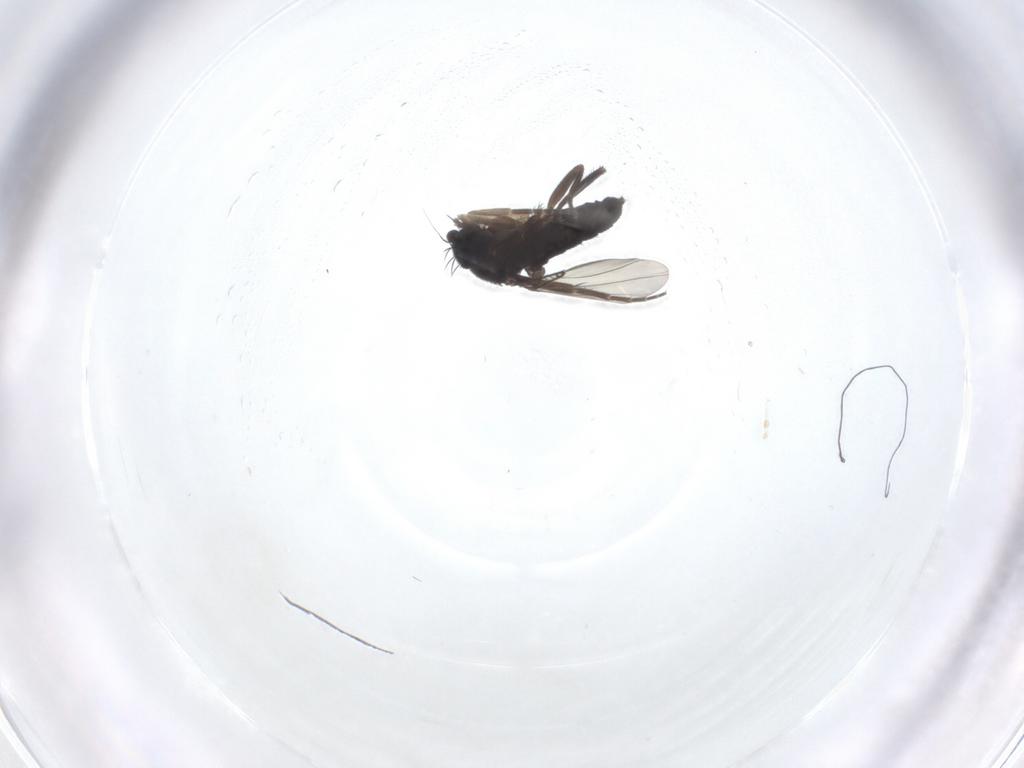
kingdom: Animalia
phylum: Arthropoda
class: Insecta
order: Diptera
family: Phoridae
